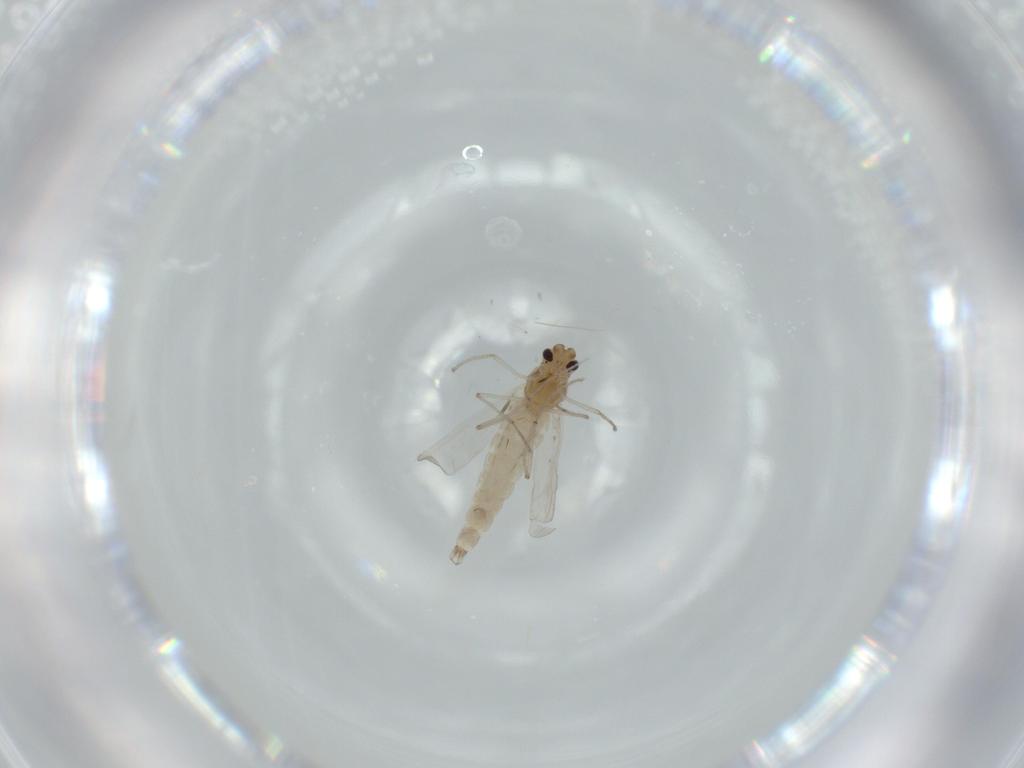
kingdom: Animalia
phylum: Arthropoda
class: Insecta
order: Diptera
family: Chironomidae
